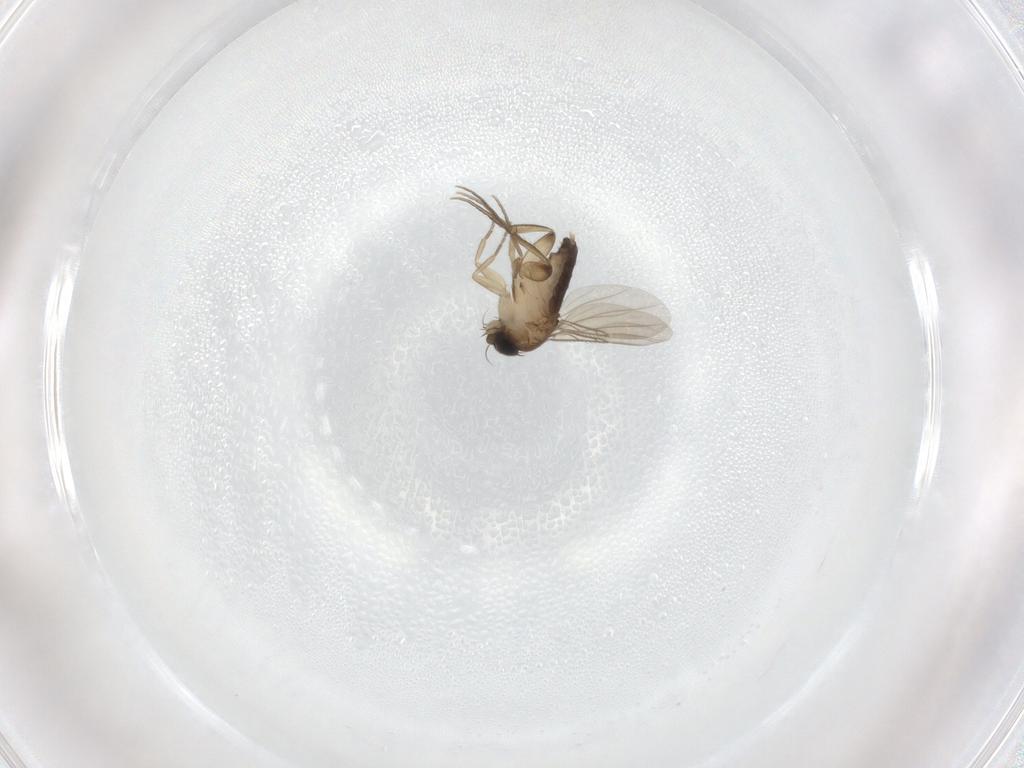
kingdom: Animalia
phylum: Arthropoda
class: Insecta
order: Diptera
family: Phoridae
